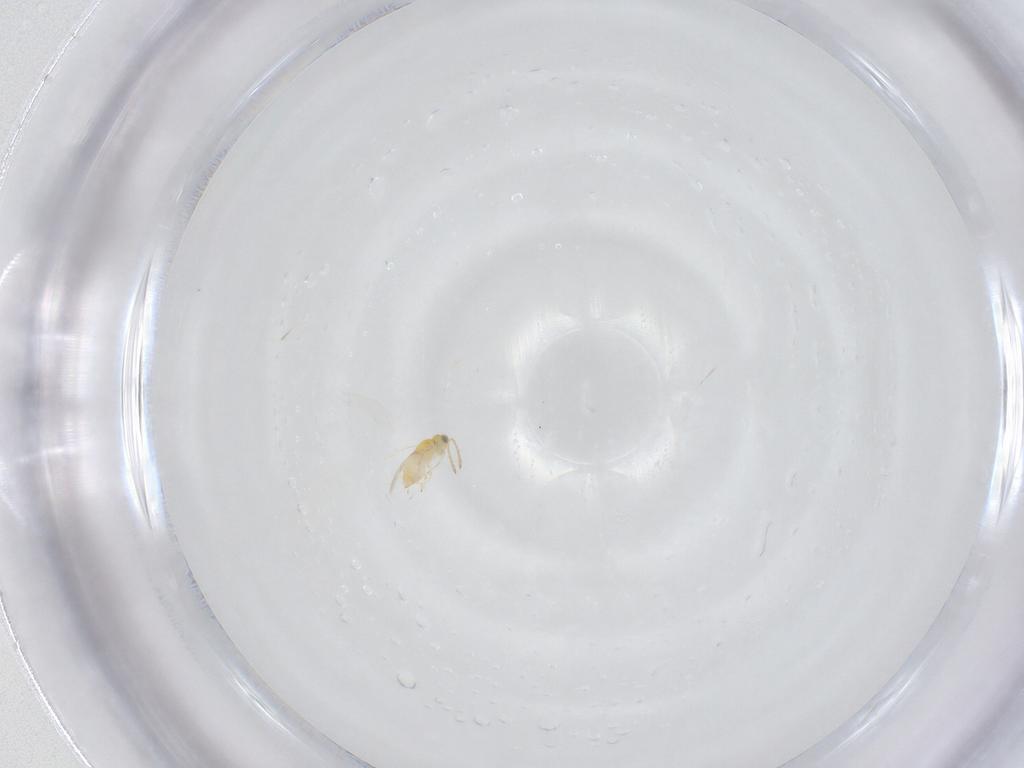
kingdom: Animalia
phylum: Arthropoda
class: Insecta
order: Hymenoptera
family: Aphelinidae
